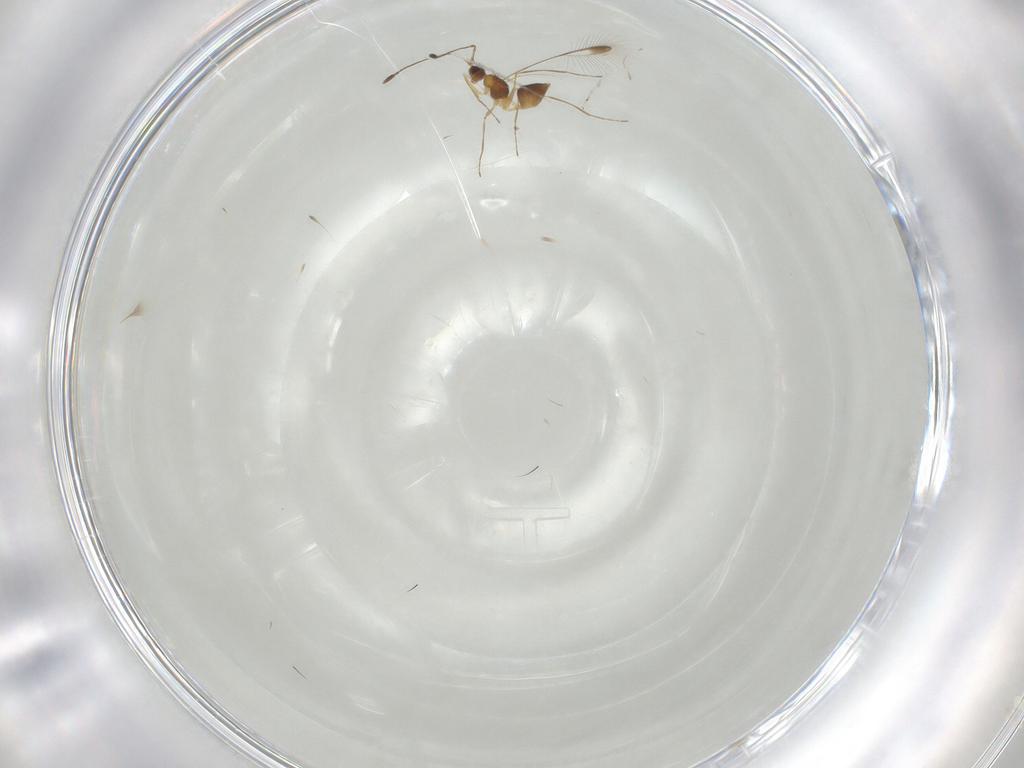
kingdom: Animalia
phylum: Arthropoda
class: Insecta
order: Hymenoptera
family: Mymaridae
